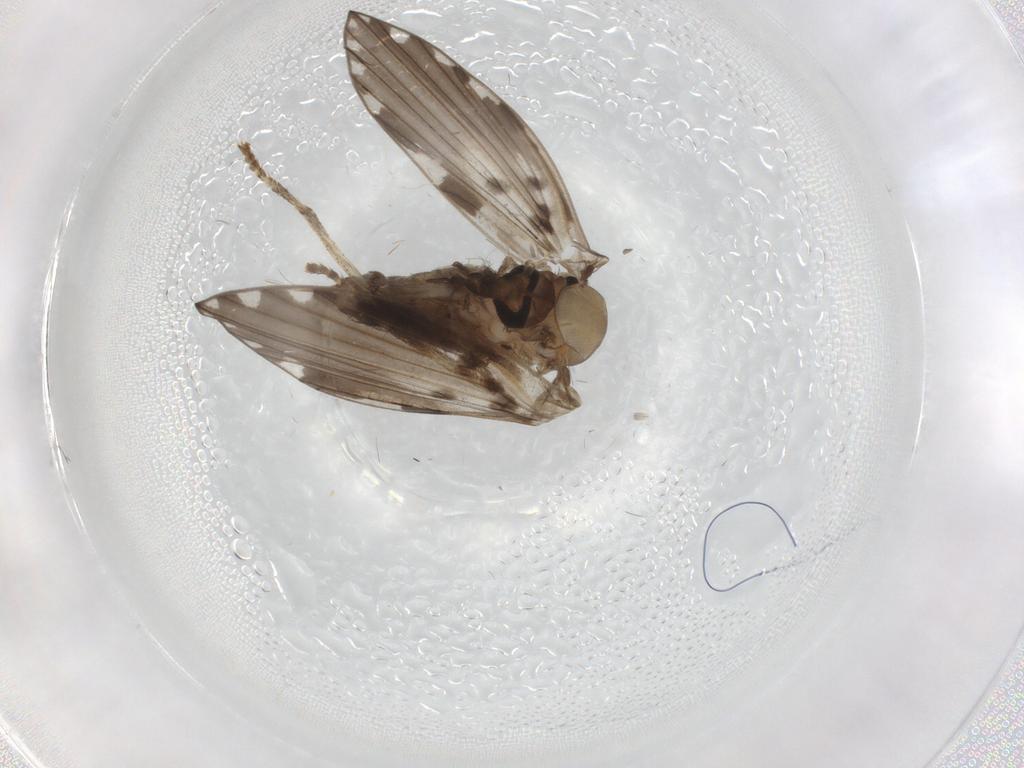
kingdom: Animalia
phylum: Arthropoda
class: Insecta
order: Diptera
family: Psychodidae
